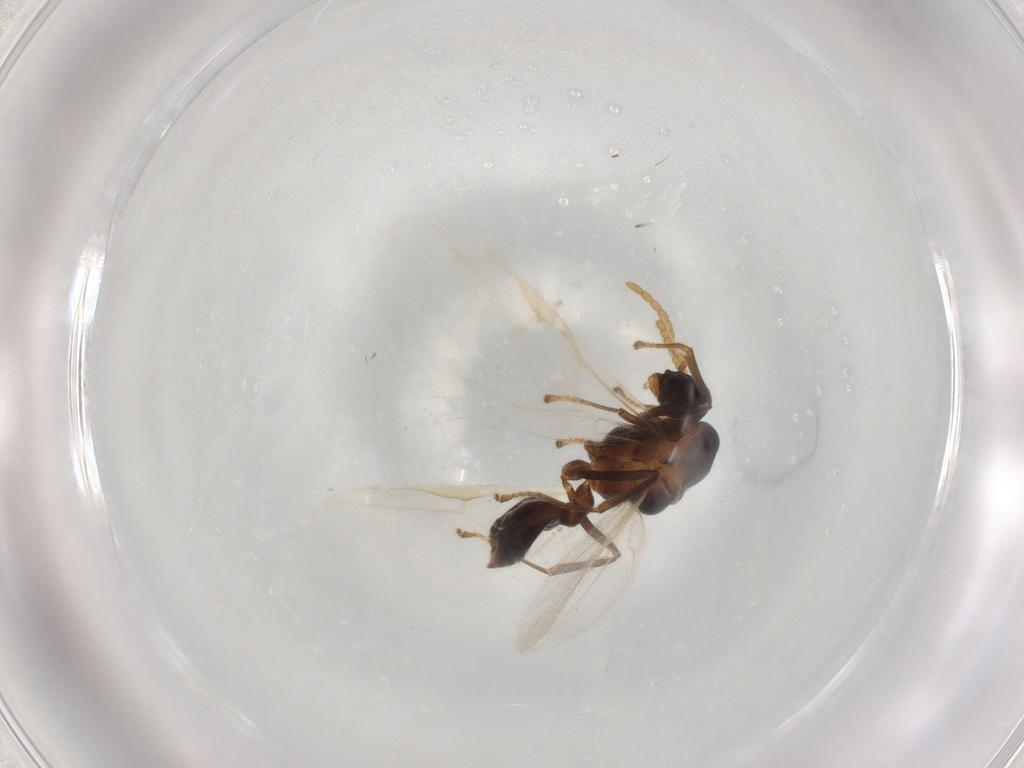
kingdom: Animalia
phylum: Arthropoda
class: Insecta
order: Hymenoptera
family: Formicidae
